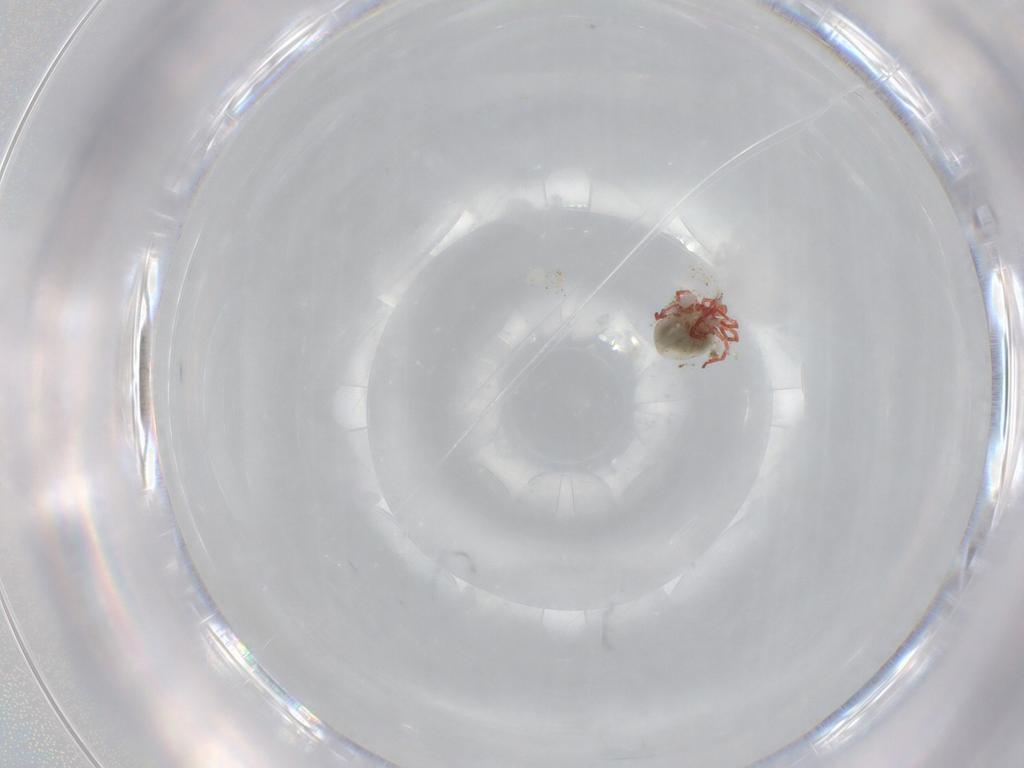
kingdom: Animalia
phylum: Arthropoda
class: Arachnida
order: Trombidiformes
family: Pionidae
